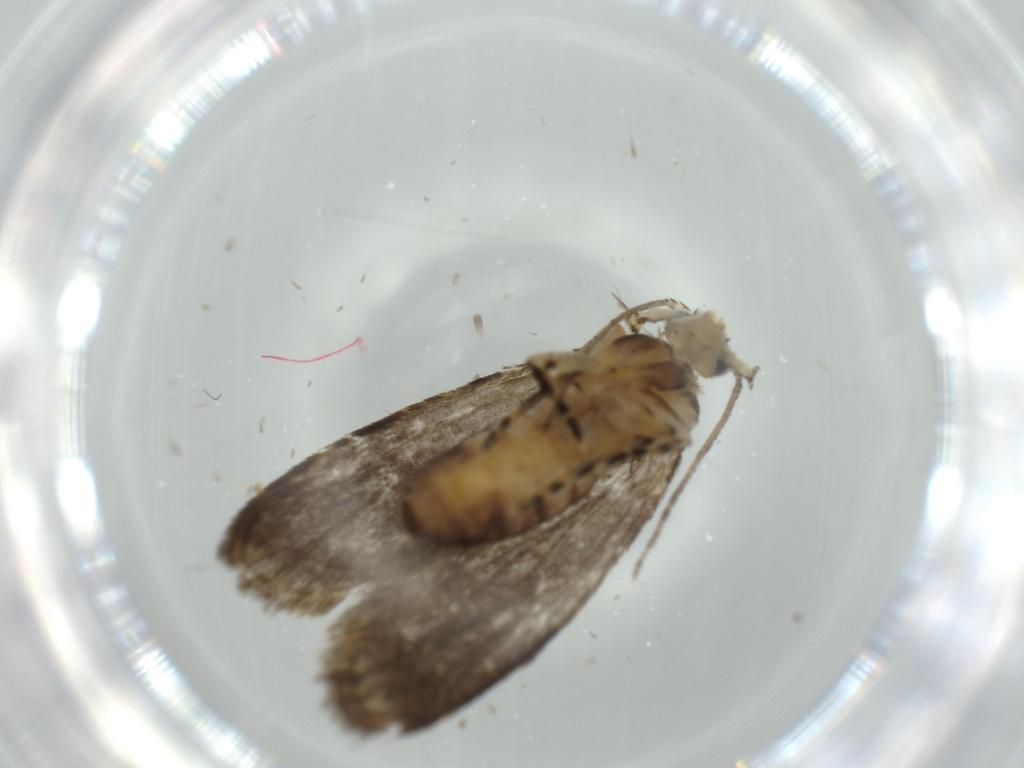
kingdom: Animalia
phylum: Arthropoda
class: Insecta
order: Lepidoptera
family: Tineidae
